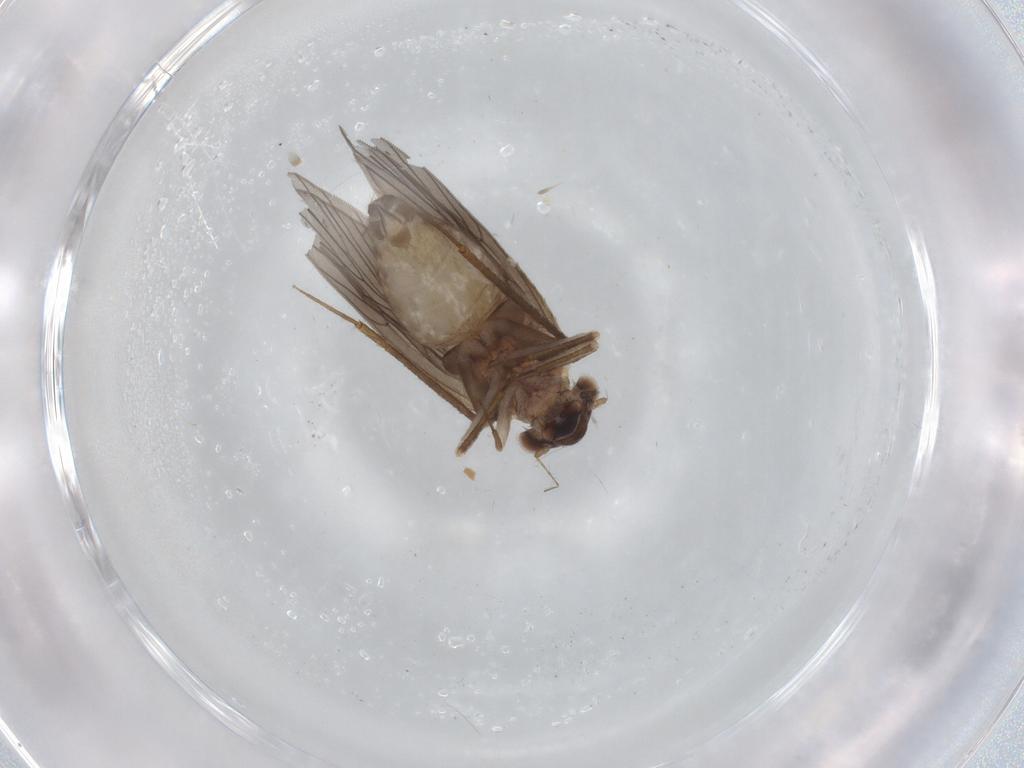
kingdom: Animalia
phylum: Arthropoda
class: Insecta
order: Psocodea
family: Lepidopsocidae
